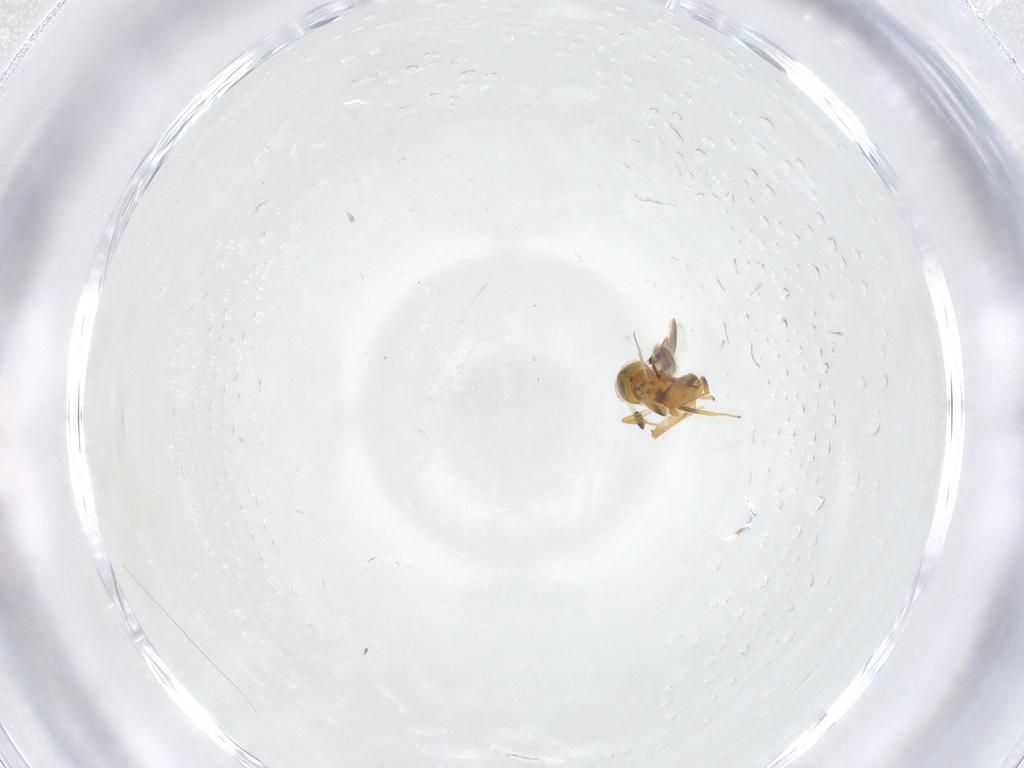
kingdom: Animalia
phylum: Arthropoda
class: Insecta
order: Hymenoptera
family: Encyrtidae
